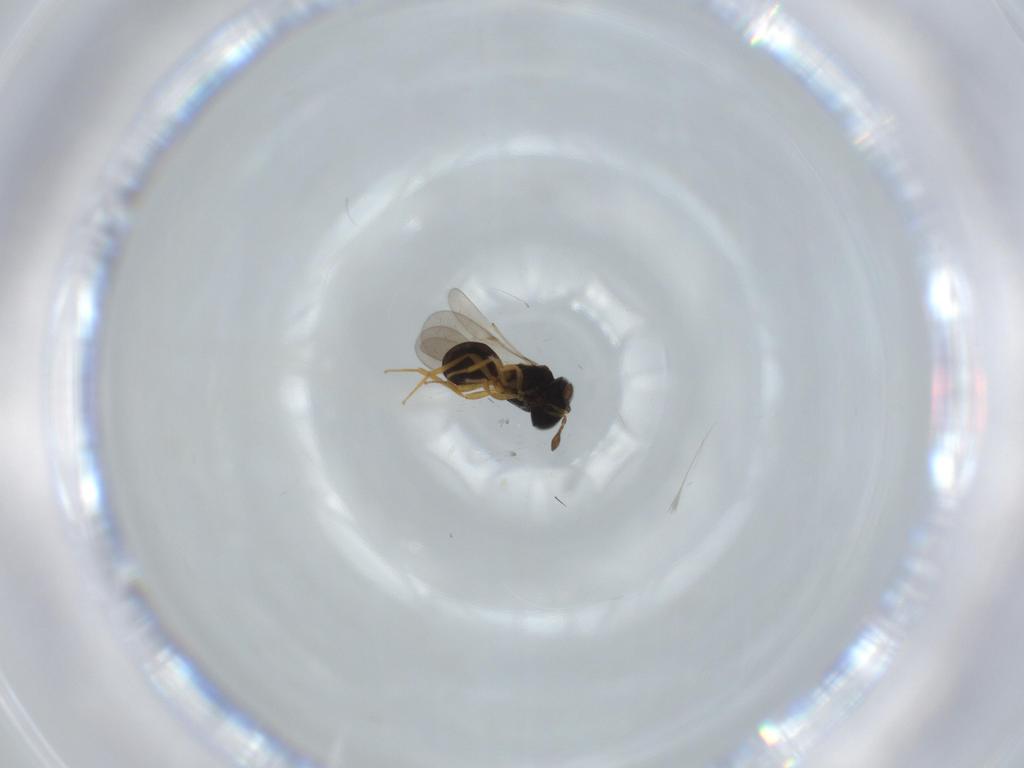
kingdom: Animalia
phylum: Arthropoda
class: Insecta
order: Hymenoptera
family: Scelionidae
